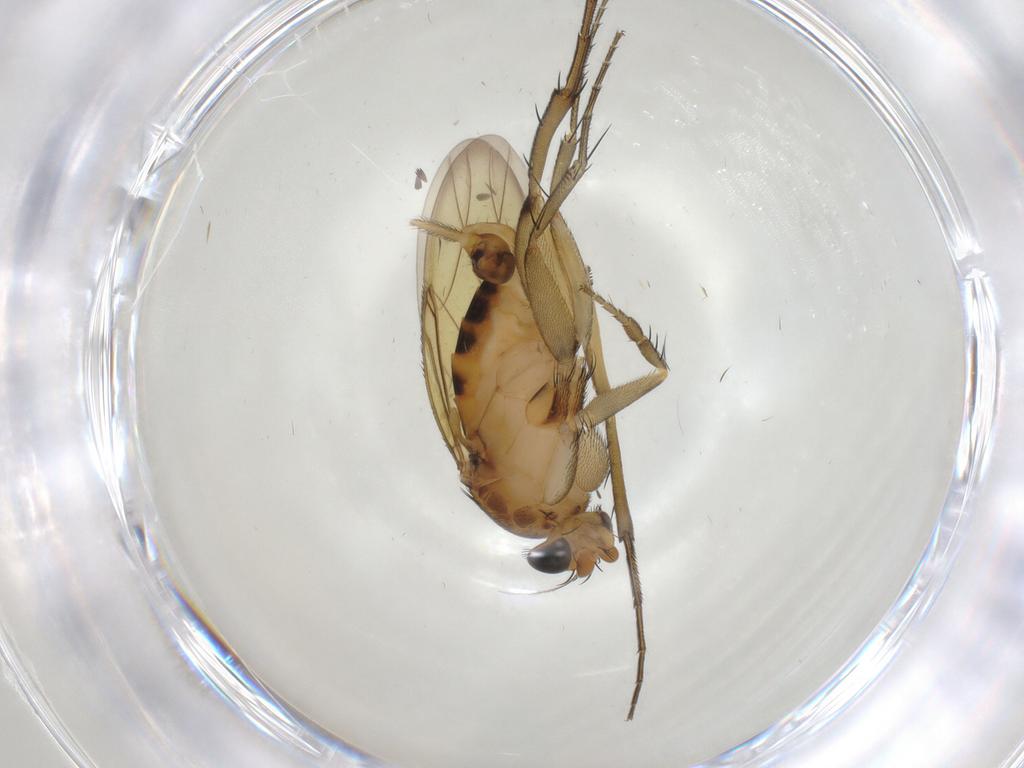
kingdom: Animalia
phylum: Arthropoda
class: Insecta
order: Diptera
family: Phoridae
